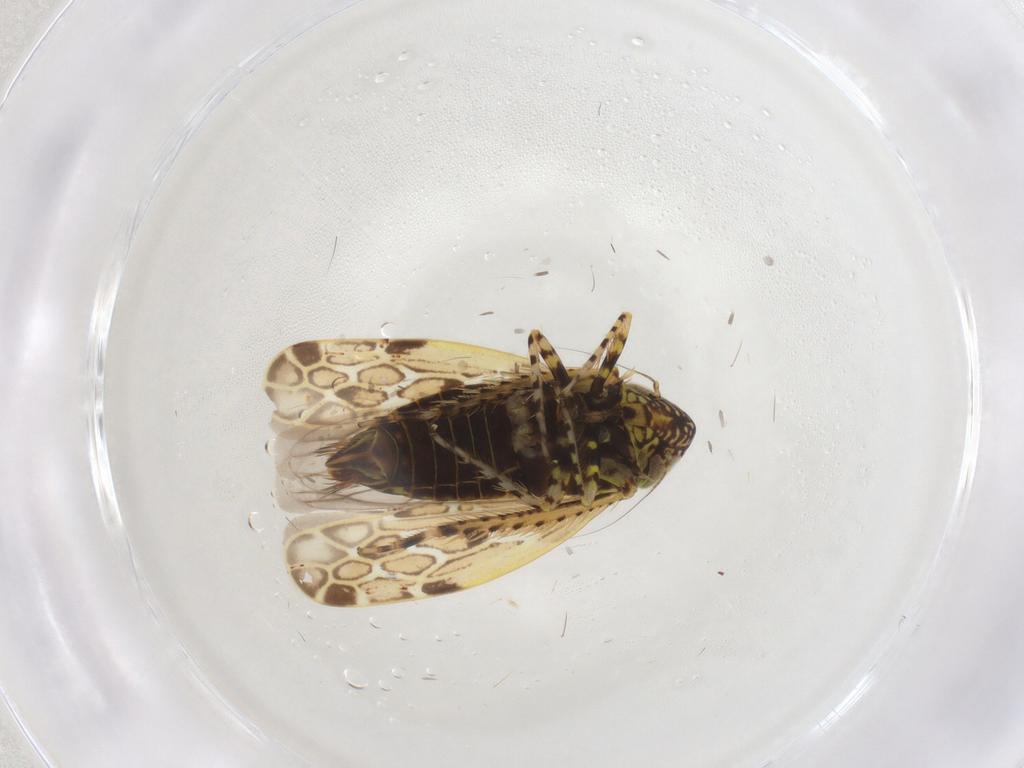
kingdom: Animalia
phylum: Arthropoda
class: Insecta
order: Hemiptera
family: Cicadellidae
